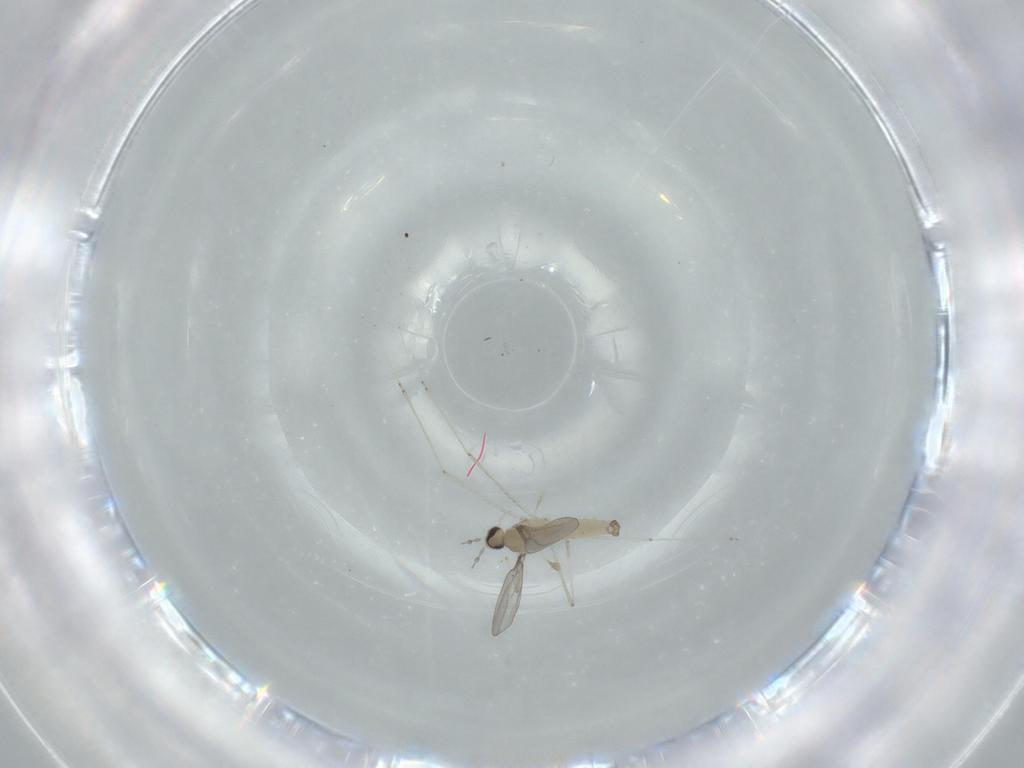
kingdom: Animalia
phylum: Arthropoda
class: Insecta
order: Diptera
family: Cecidomyiidae
